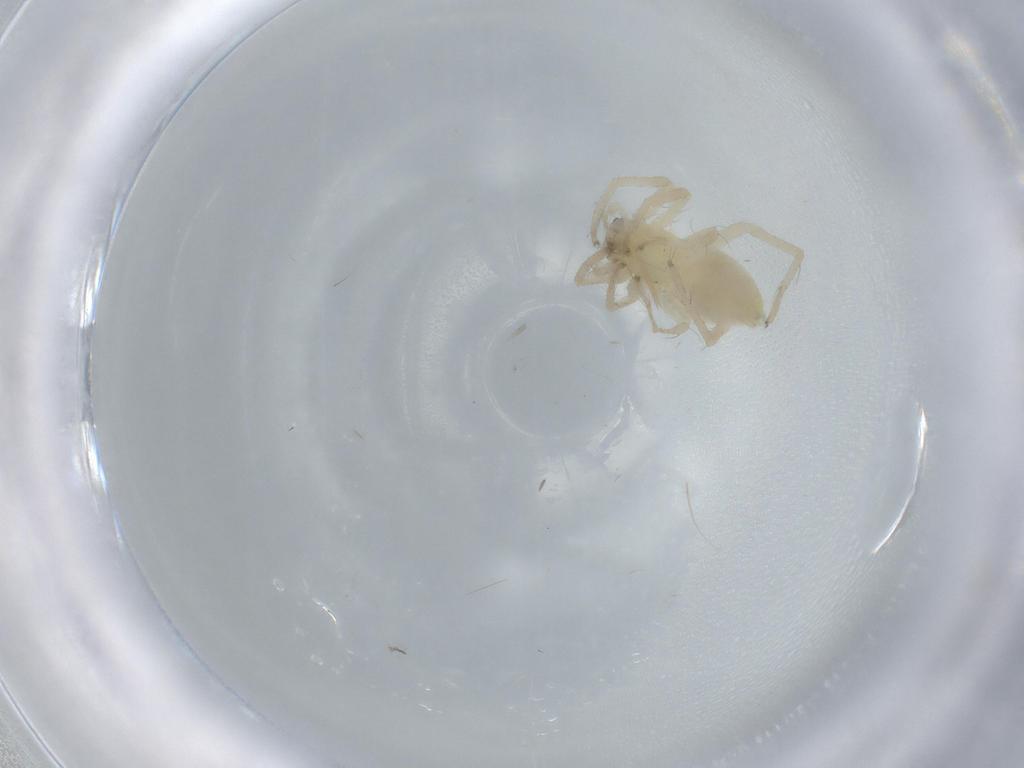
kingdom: Animalia
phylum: Arthropoda
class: Arachnida
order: Araneae
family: Anyphaenidae
